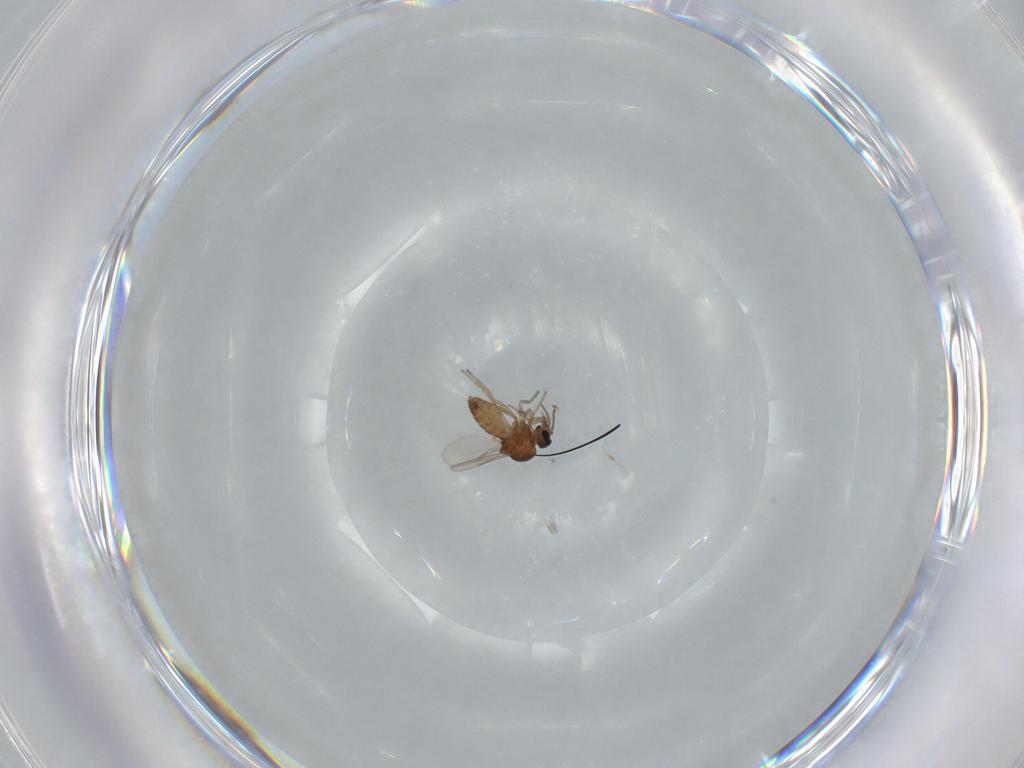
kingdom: Animalia
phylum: Arthropoda
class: Insecta
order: Diptera
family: Ceratopogonidae
